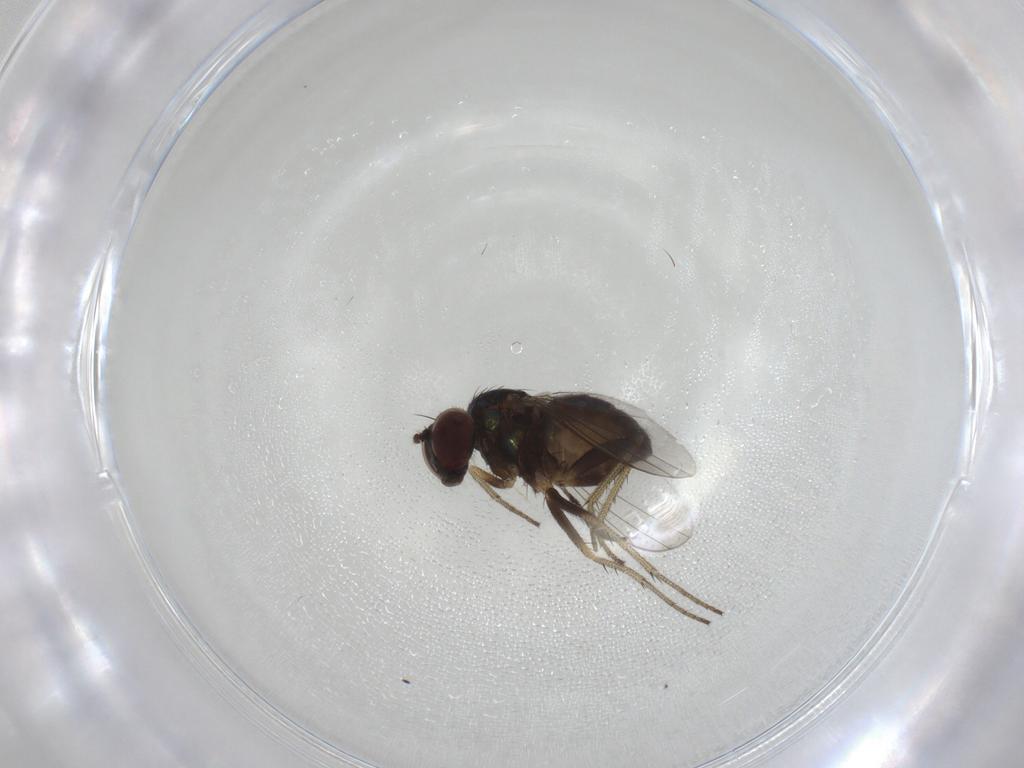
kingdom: Animalia
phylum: Arthropoda
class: Insecta
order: Diptera
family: Dolichopodidae
